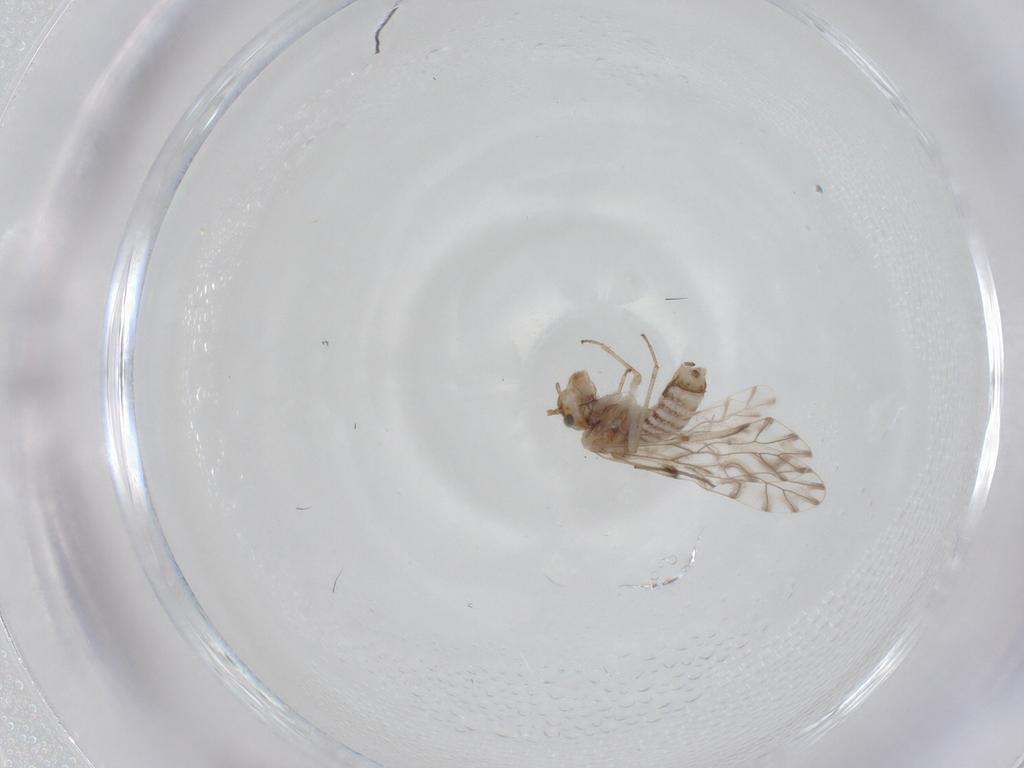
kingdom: Animalia
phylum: Arthropoda
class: Insecta
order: Psocodea
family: Lachesillidae
